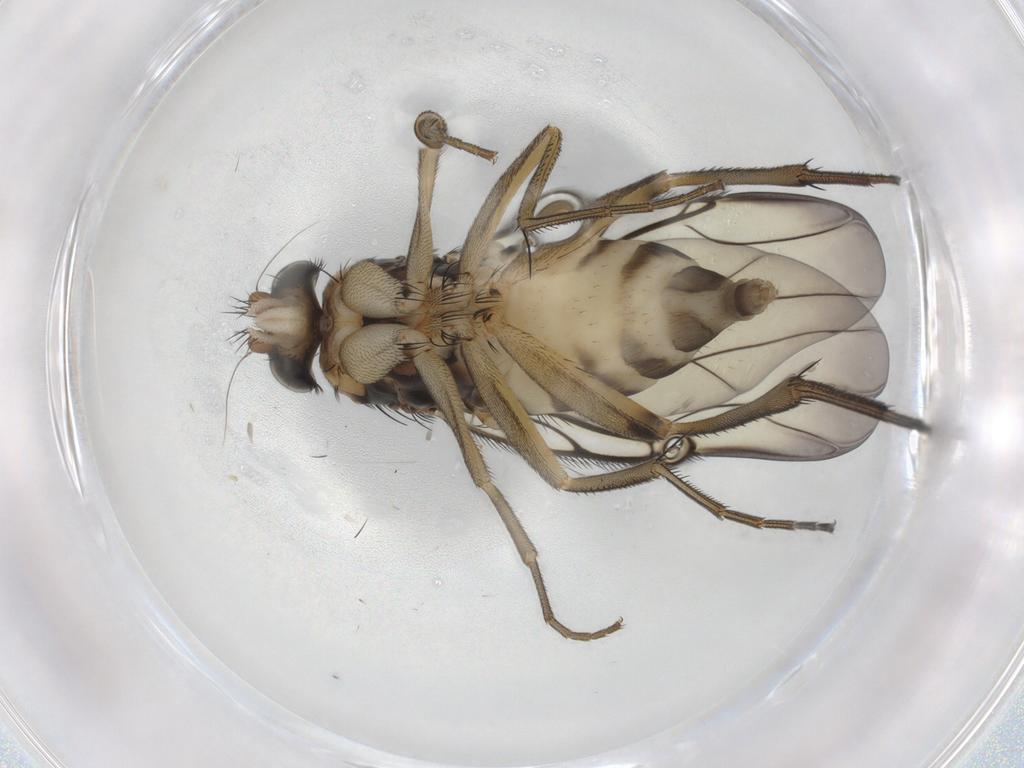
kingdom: Animalia
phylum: Arthropoda
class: Insecta
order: Diptera
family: Phoridae
